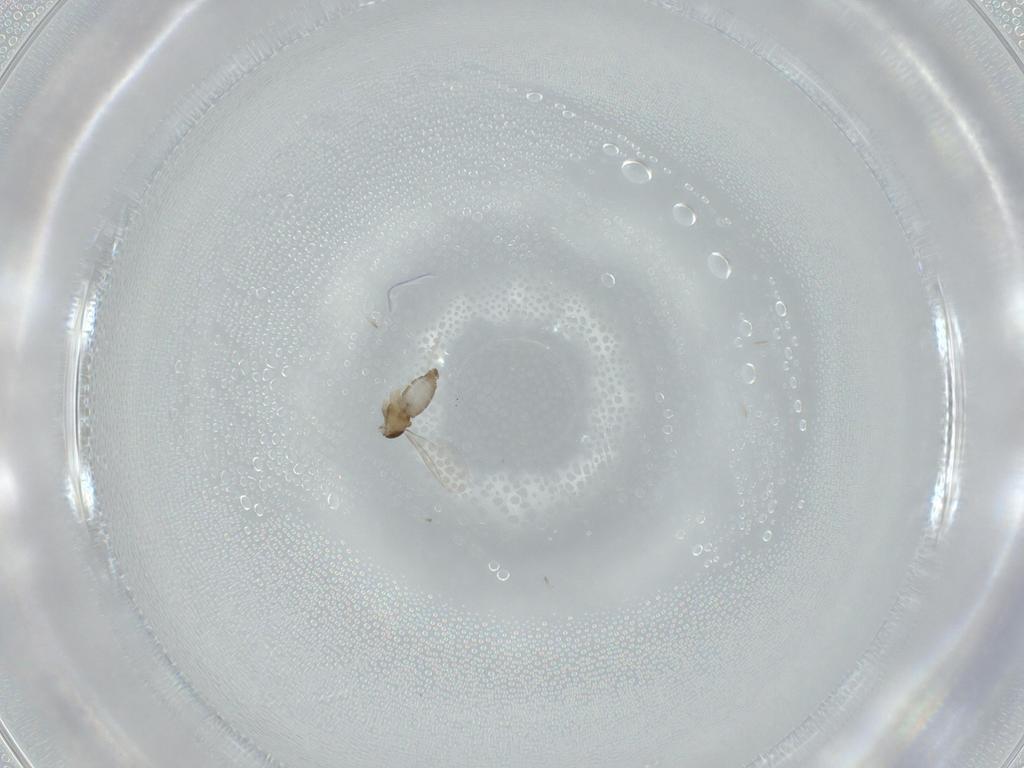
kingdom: Animalia
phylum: Arthropoda
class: Insecta
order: Diptera
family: Cecidomyiidae
